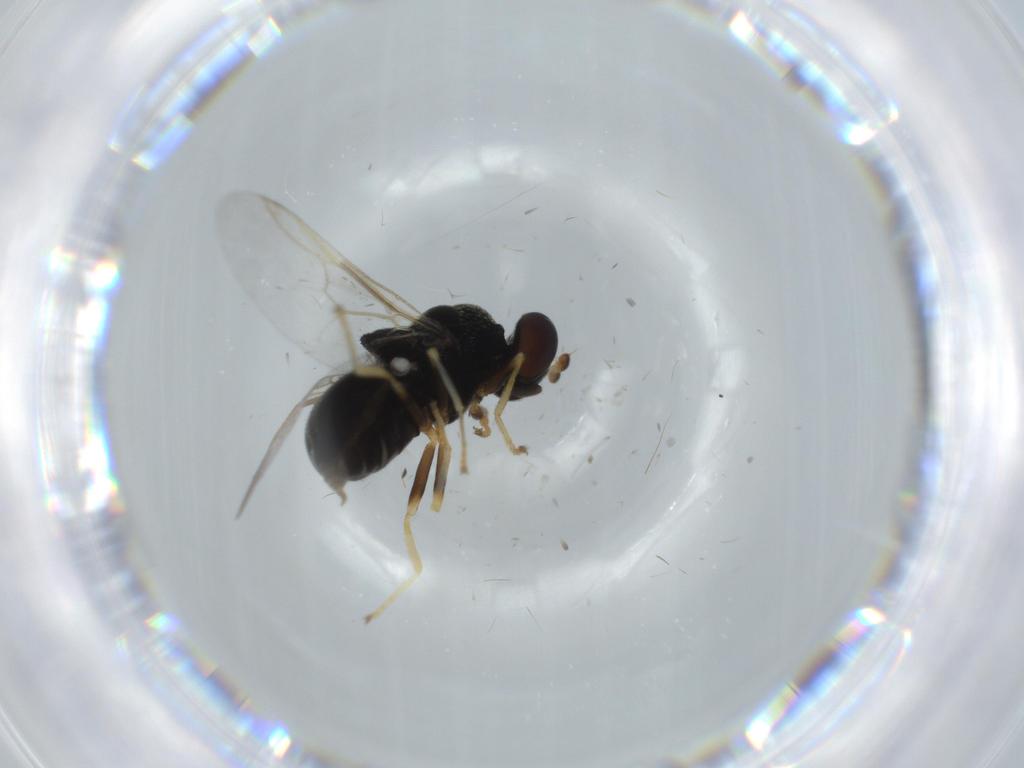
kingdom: Animalia
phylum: Arthropoda
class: Insecta
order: Diptera
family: Stratiomyidae
